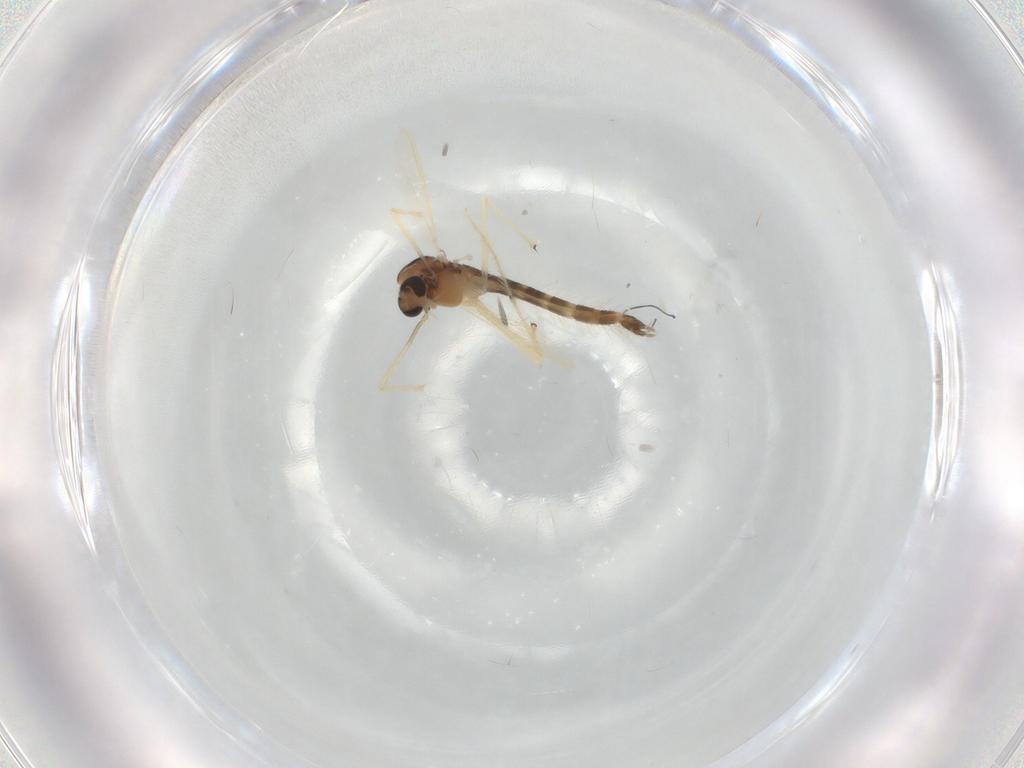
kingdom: Animalia
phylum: Arthropoda
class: Insecta
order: Diptera
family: Chironomidae
